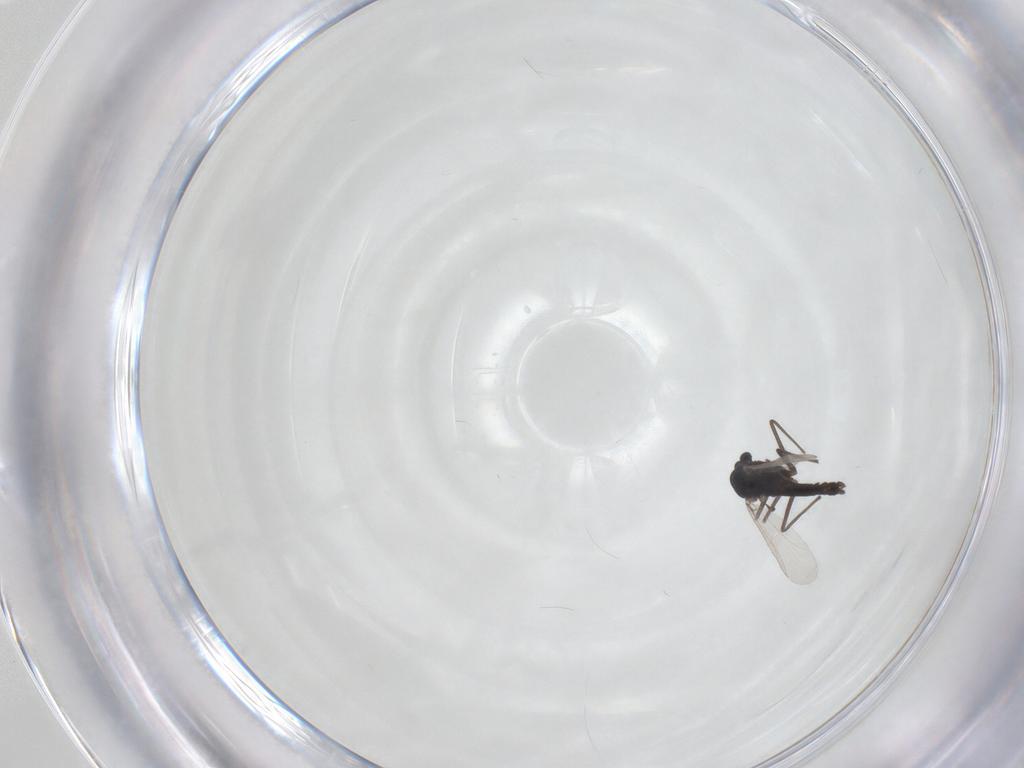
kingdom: Animalia
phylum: Arthropoda
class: Insecta
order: Diptera
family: Chironomidae
